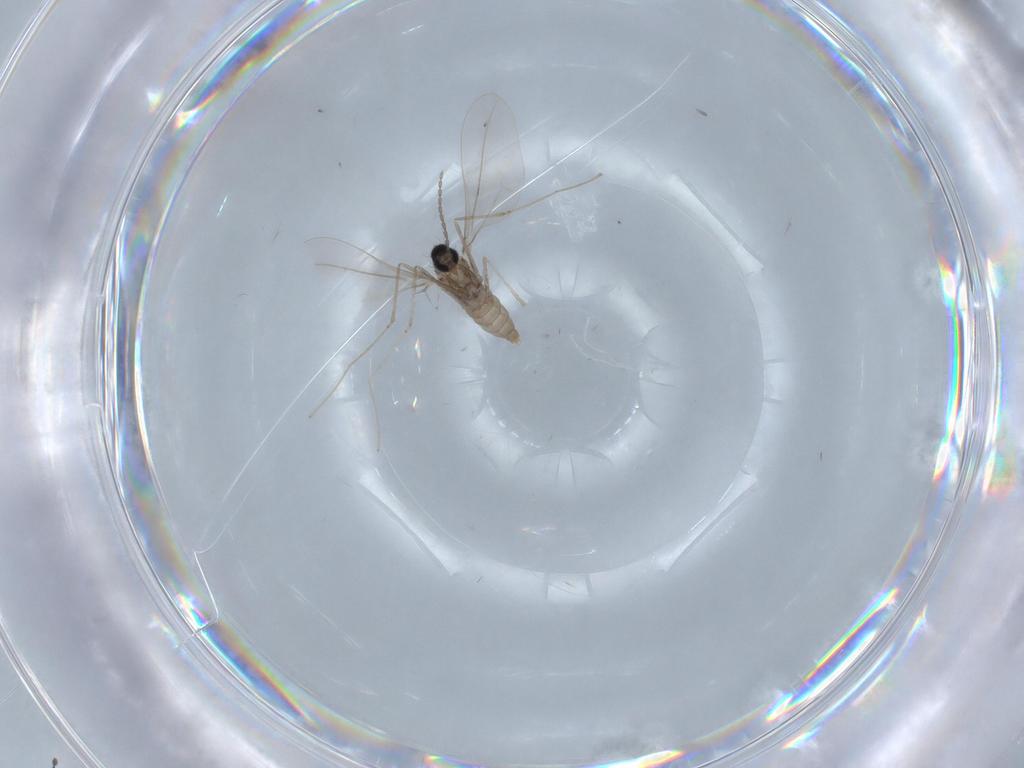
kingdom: Animalia
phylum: Arthropoda
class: Insecta
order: Diptera
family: Cecidomyiidae
